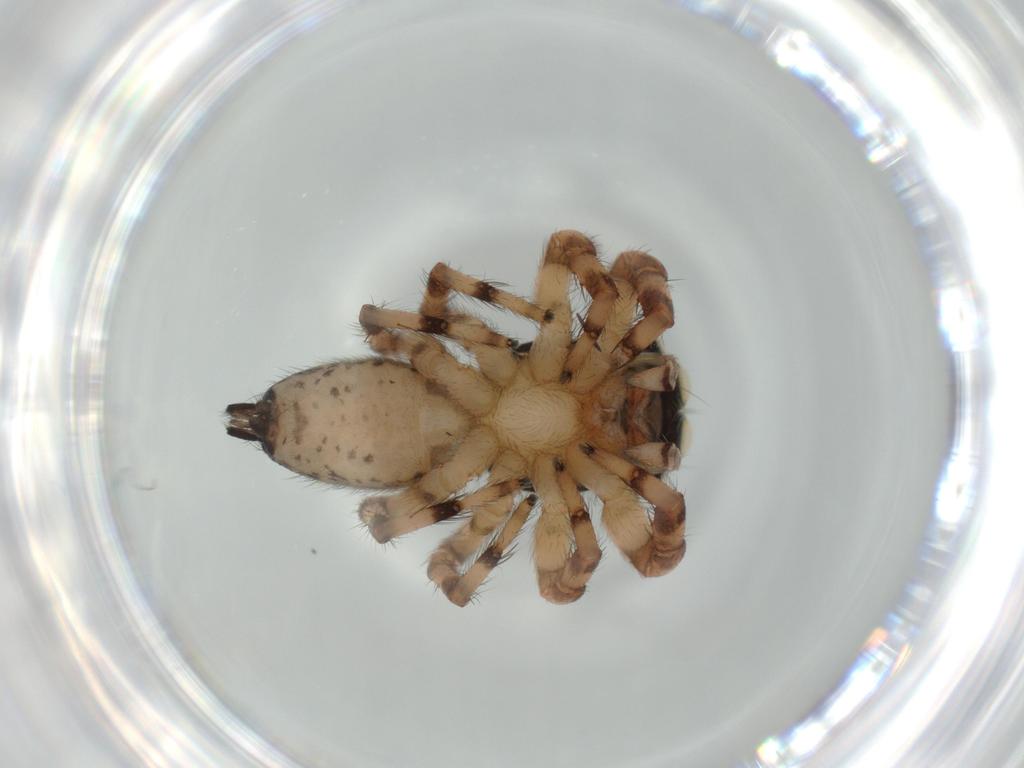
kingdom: Animalia
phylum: Arthropoda
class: Arachnida
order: Araneae
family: Salticidae
